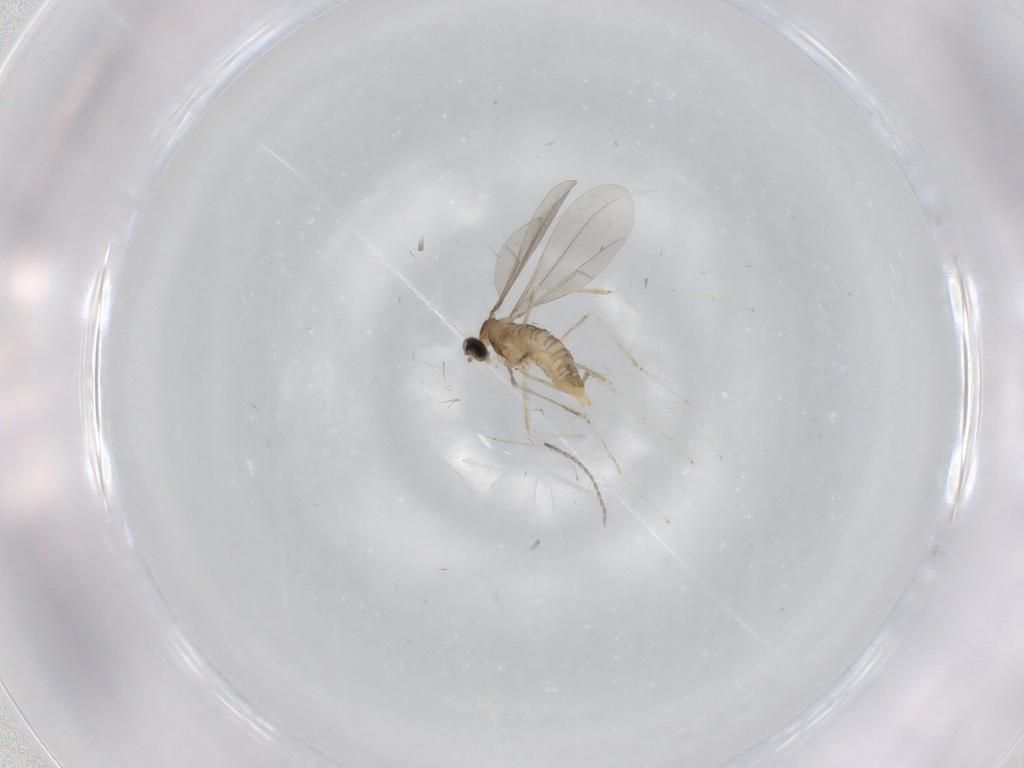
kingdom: Animalia
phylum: Arthropoda
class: Insecta
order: Diptera
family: Cecidomyiidae
